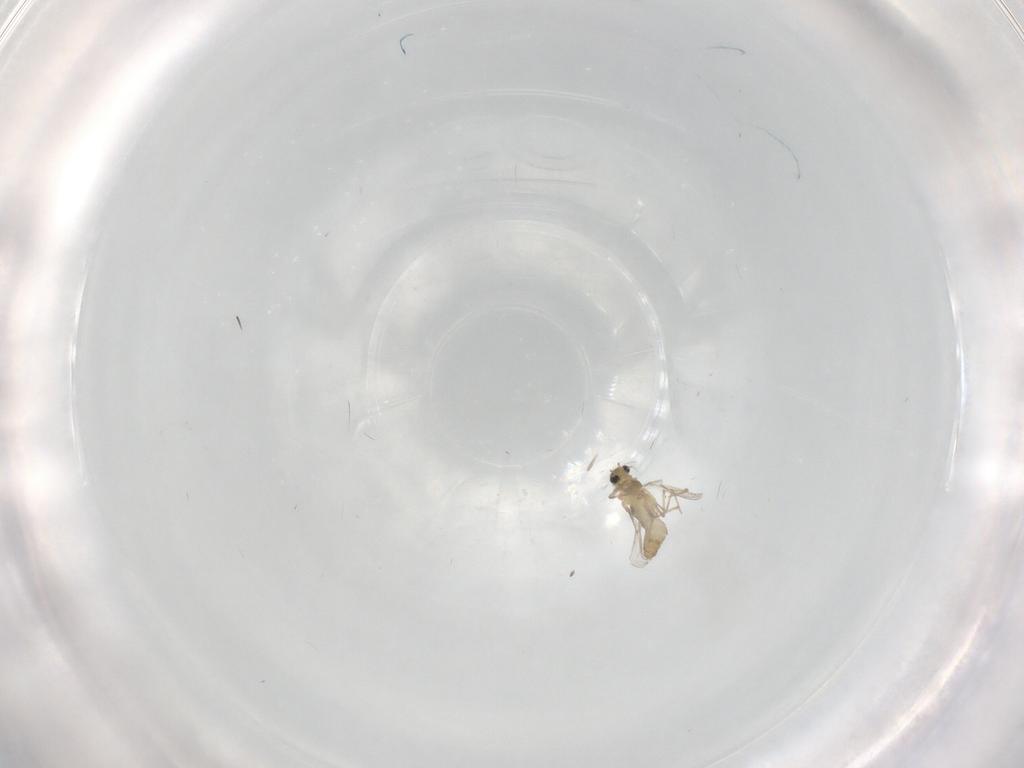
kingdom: Animalia
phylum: Arthropoda
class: Insecta
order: Diptera
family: Chironomidae
